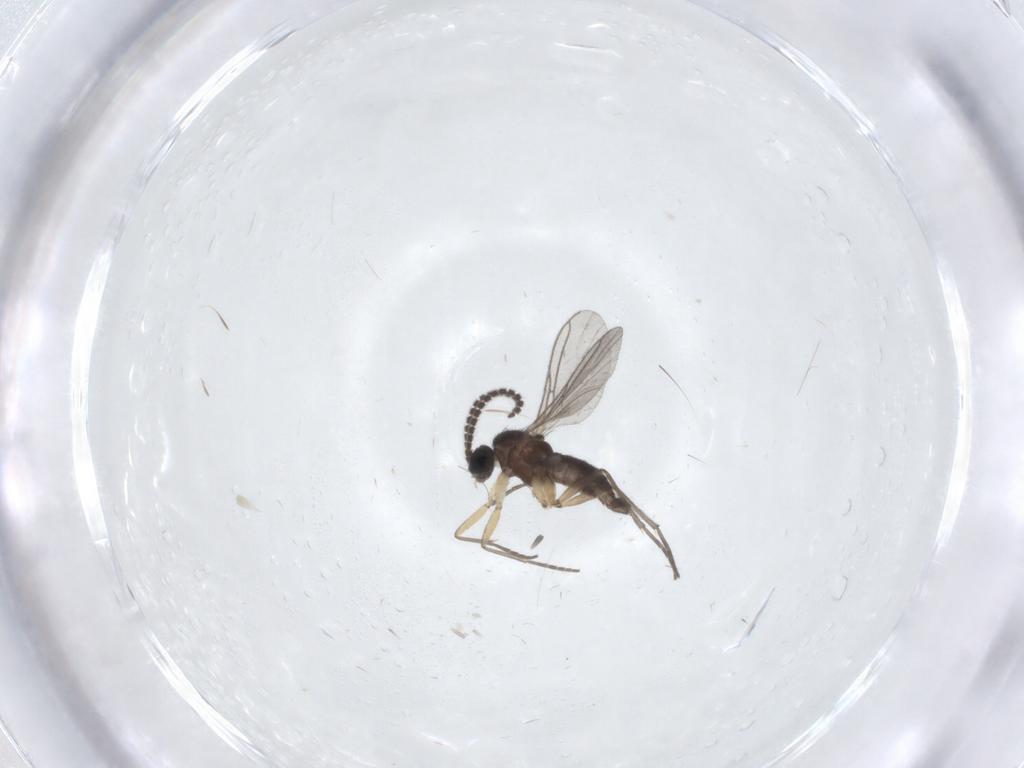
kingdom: Animalia
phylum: Arthropoda
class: Insecta
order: Diptera
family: Sciaridae
